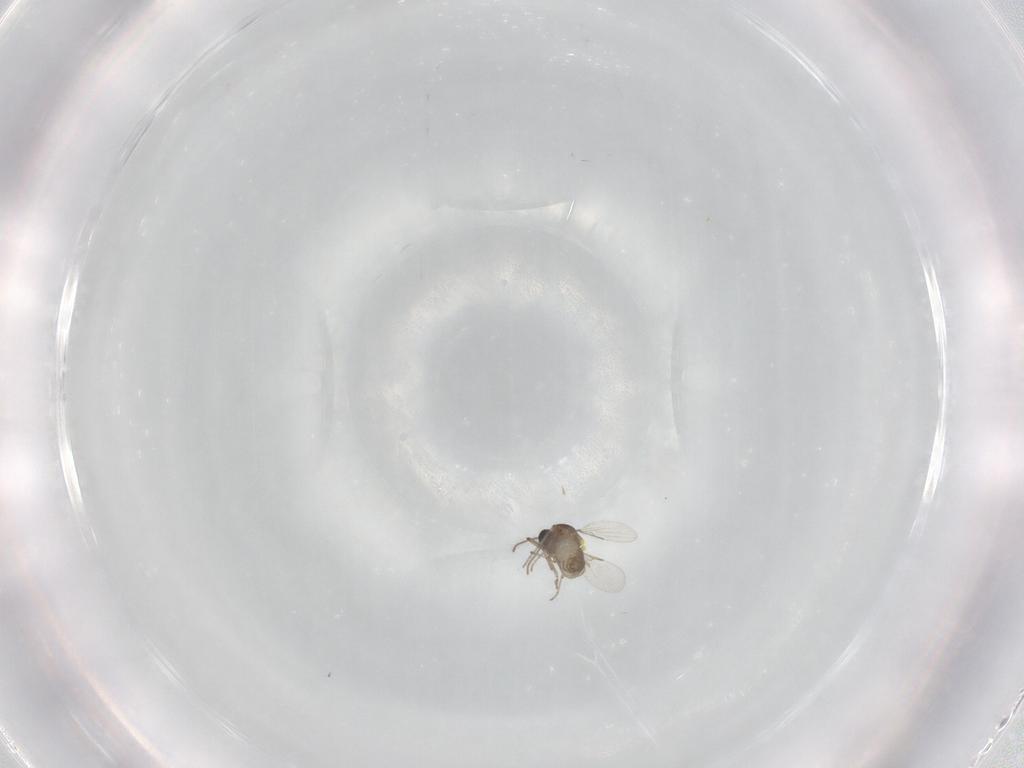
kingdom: Animalia
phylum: Arthropoda
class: Insecta
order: Diptera
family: Ceratopogonidae
